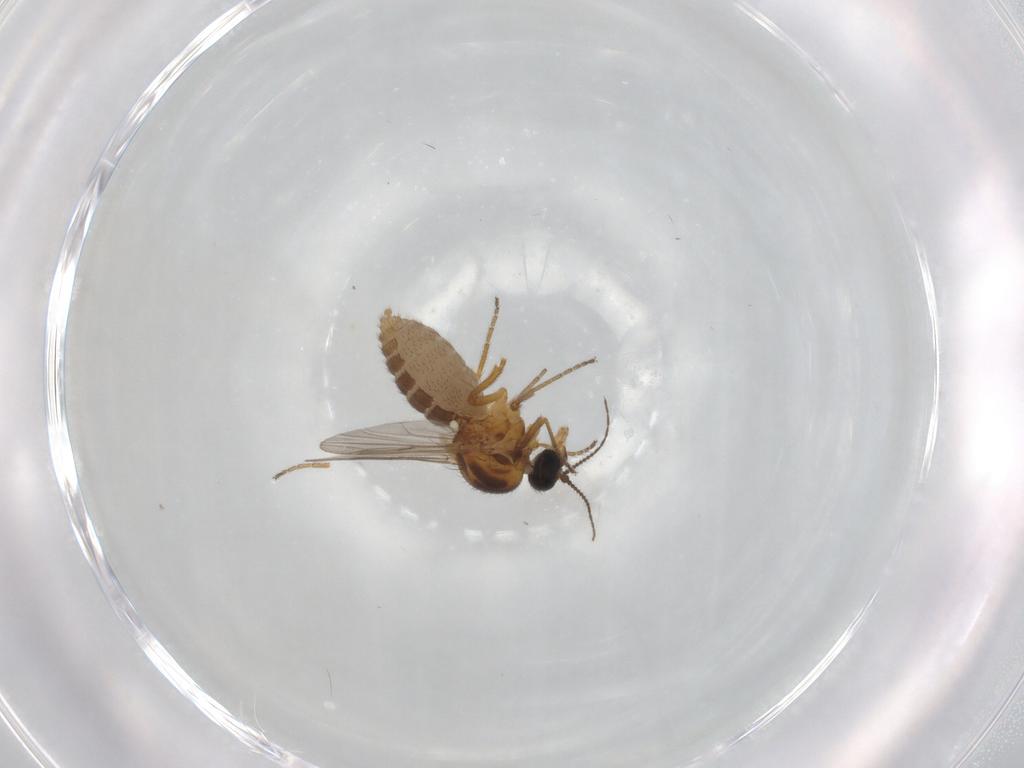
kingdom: Animalia
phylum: Arthropoda
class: Insecta
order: Diptera
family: Ceratopogonidae
